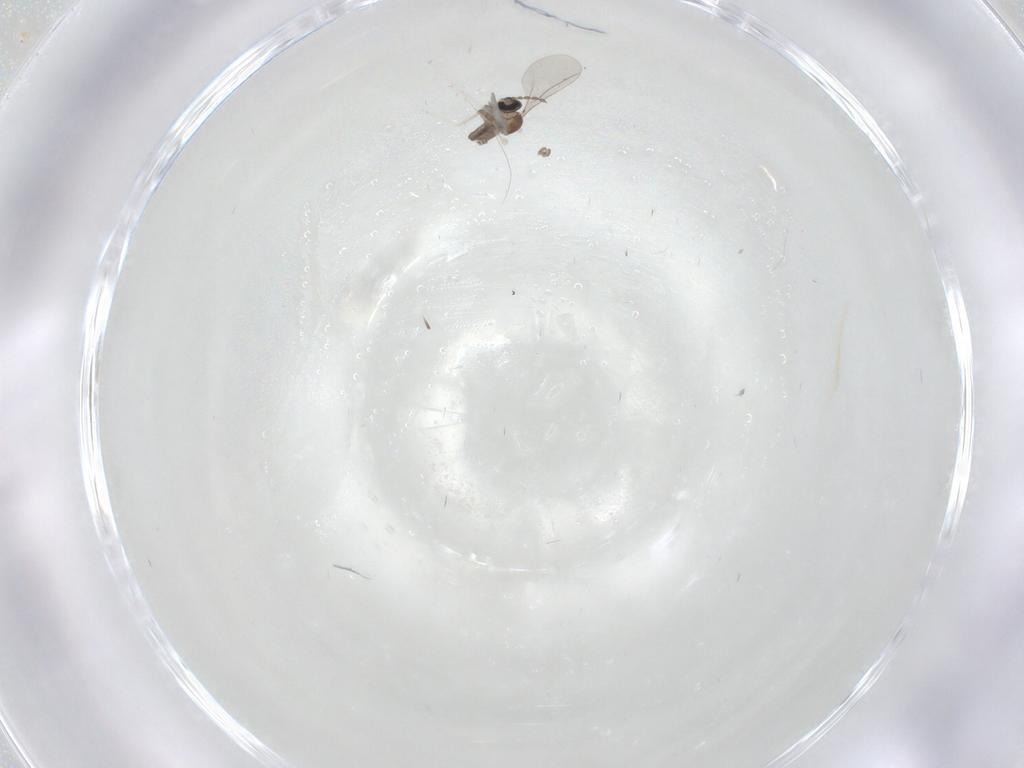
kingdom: Animalia
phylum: Arthropoda
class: Insecta
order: Diptera
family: Cecidomyiidae
